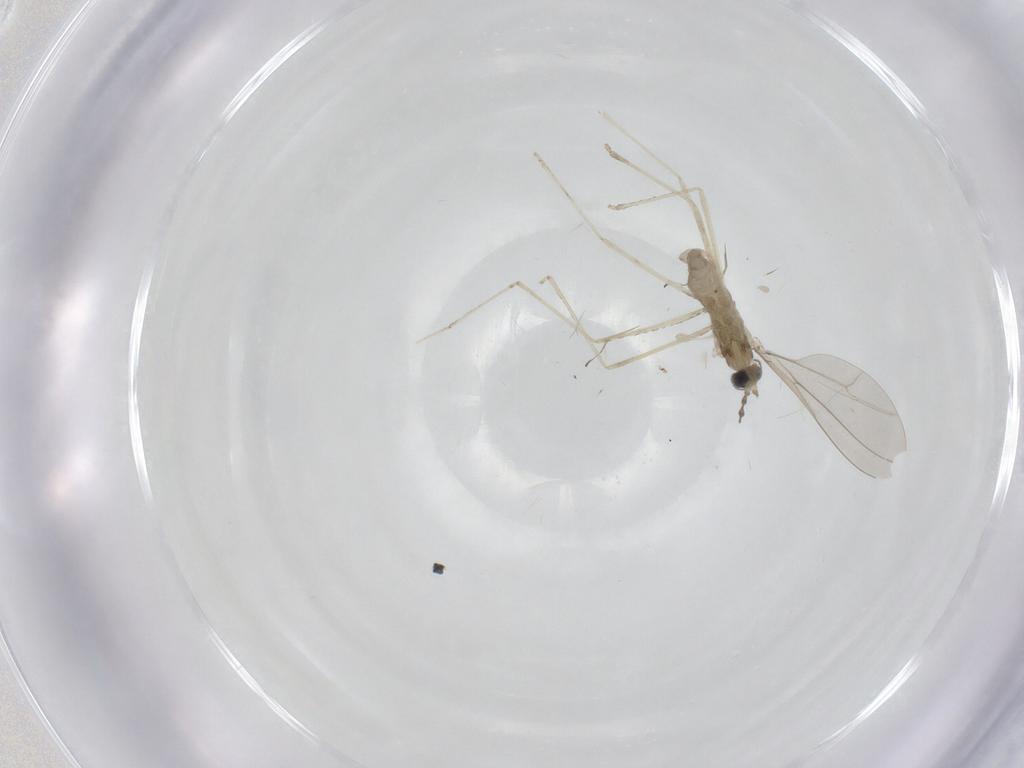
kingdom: Animalia
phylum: Arthropoda
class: Insecta
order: Diptera
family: Cecidomyiidae
